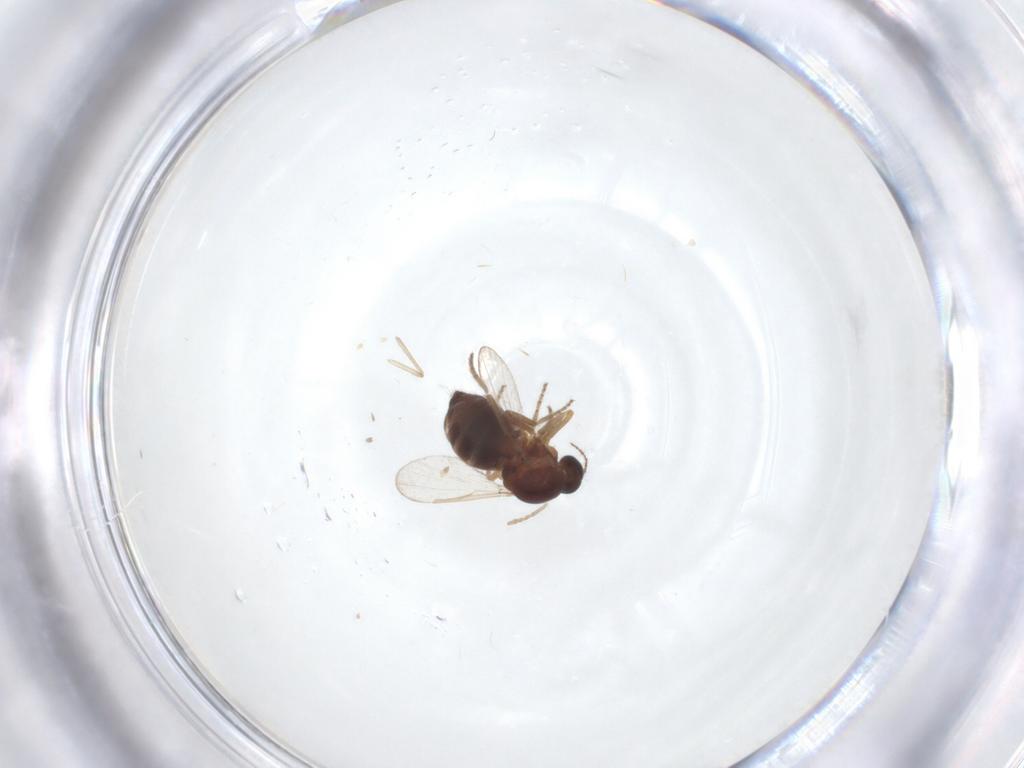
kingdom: Animalia
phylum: Arthropoda
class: Insecta
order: Diptera
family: Ceratopogonidae
